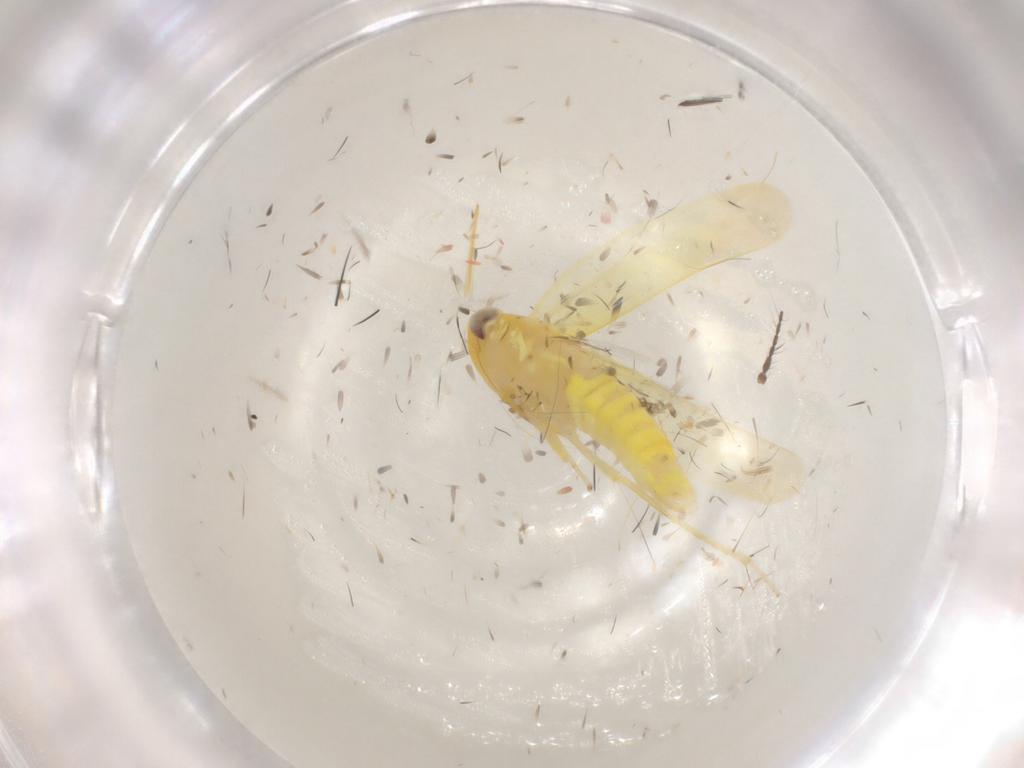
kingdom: Animalia
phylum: Arthropoda
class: Insecta
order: Hemiptera
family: Cicadellidae
